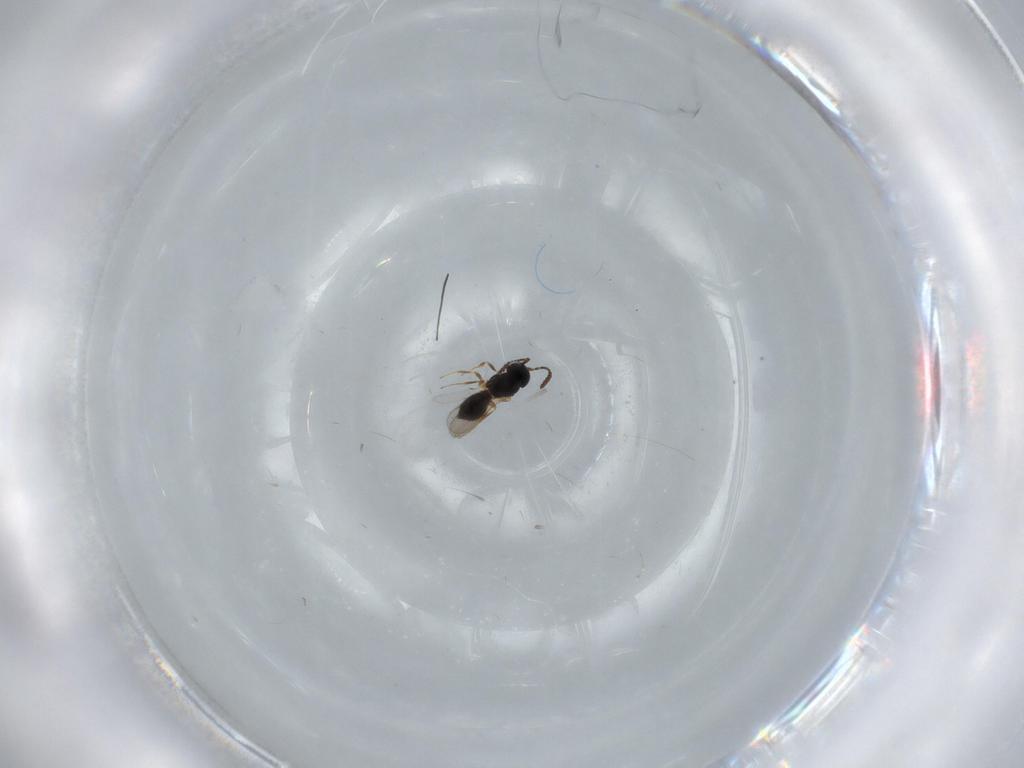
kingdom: Animalia
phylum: Arthropoda
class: Insecta
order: Hymenoptera
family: Scelionidae
